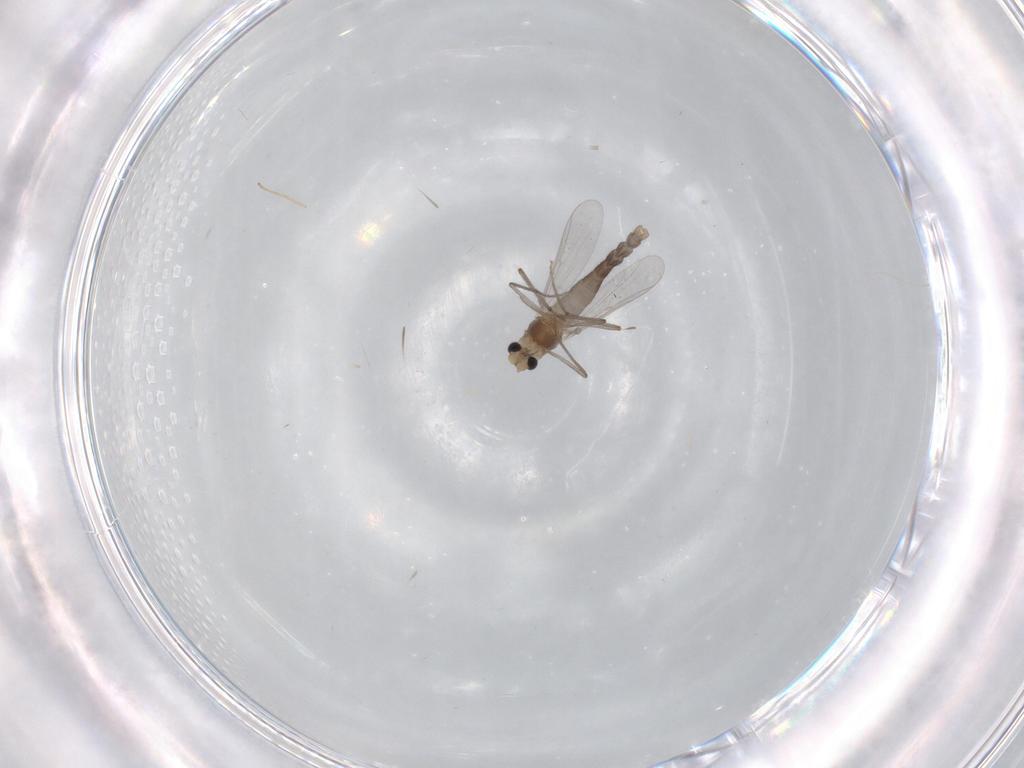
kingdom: Animalia
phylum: Arthropoda
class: Insecta
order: Diptera
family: Chironomidae
